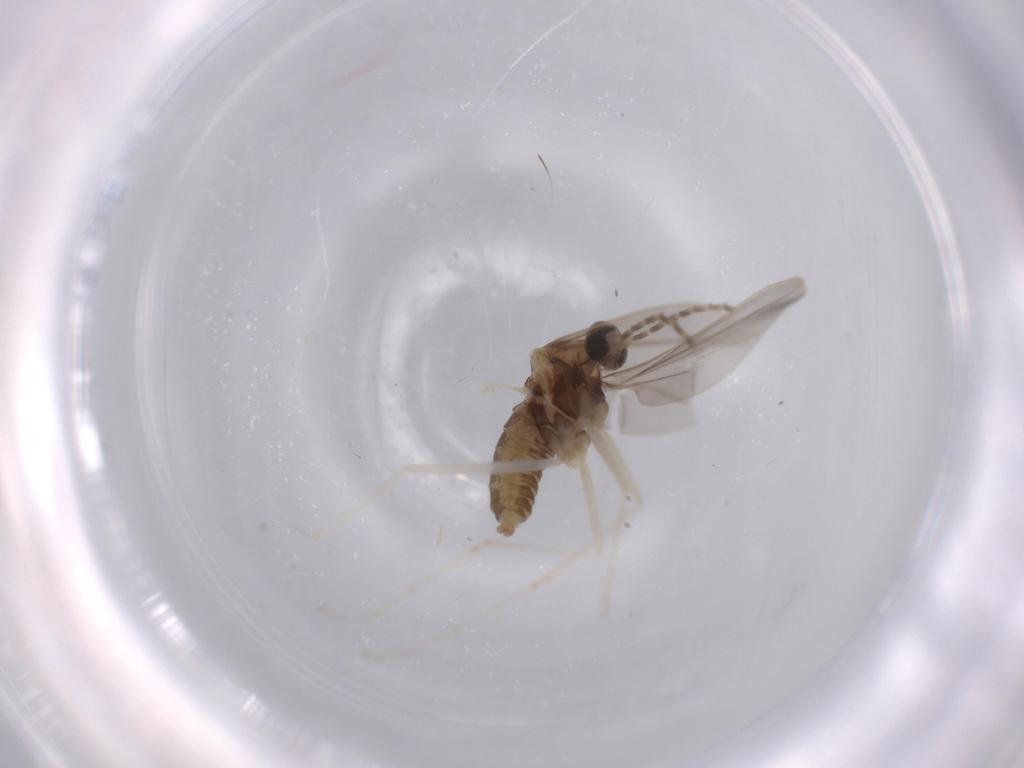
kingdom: Animalia
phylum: Arthropoda
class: Insecta
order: Diptera
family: Cecidomyiidae
